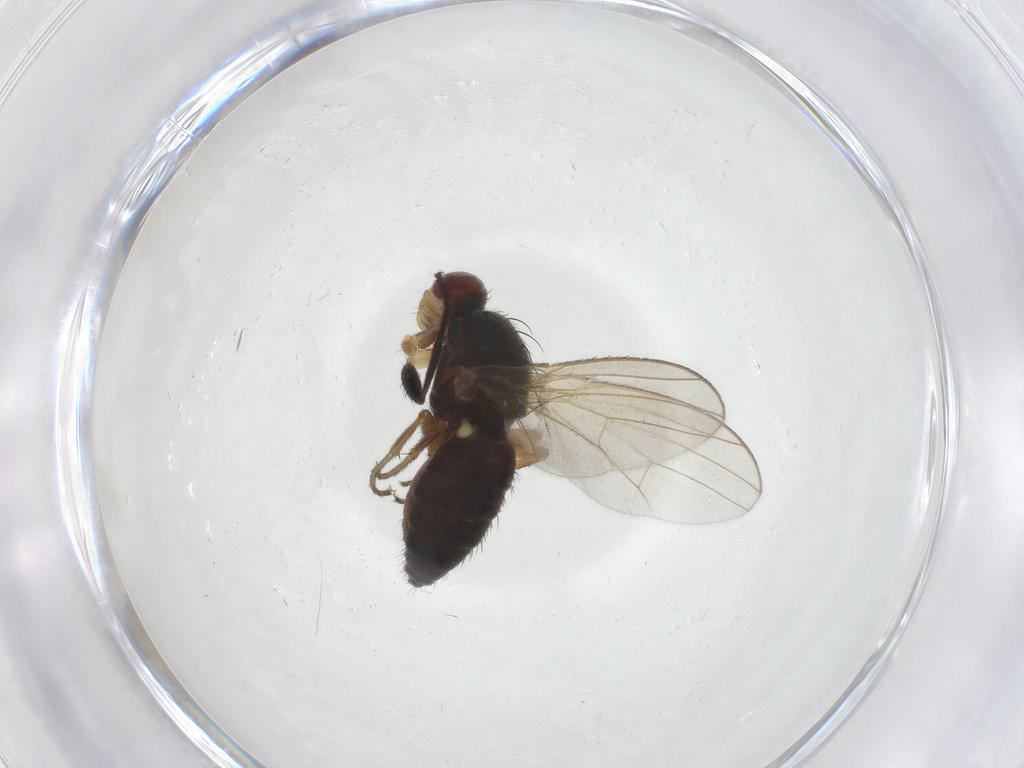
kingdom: Animalia
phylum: Arthropoda
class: Insecta
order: Diptera
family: Heleomyzidae
